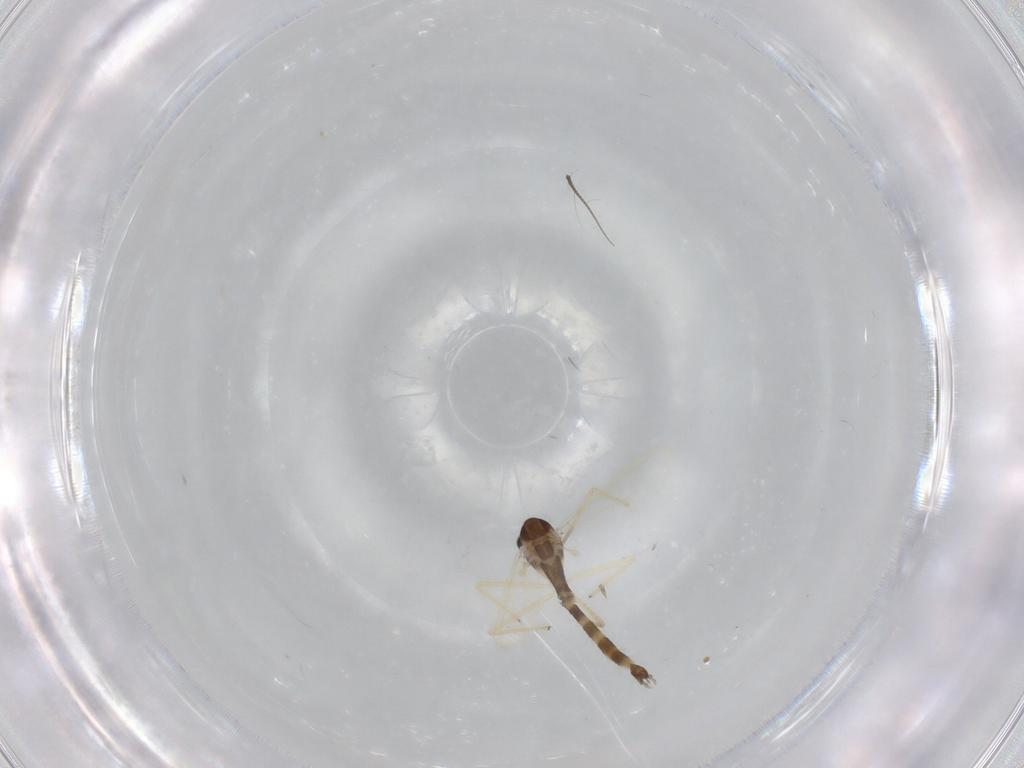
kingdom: Animalia
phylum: Arthropoda
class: Insecta
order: Diptera
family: Chironomidae
